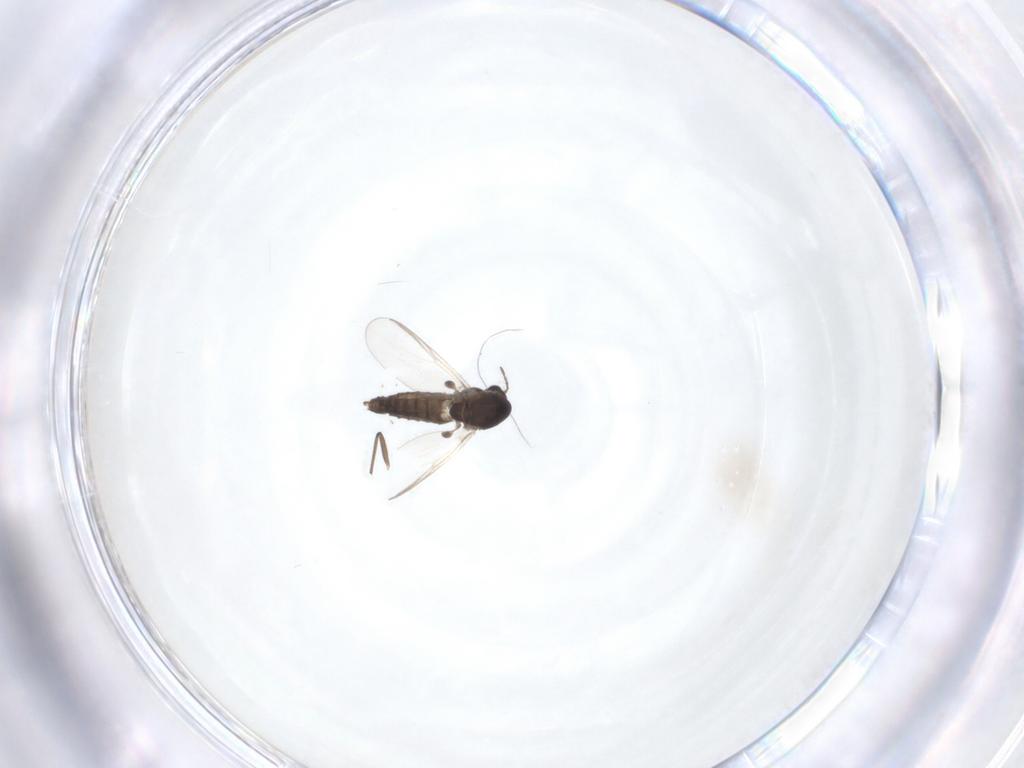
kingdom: Animalia
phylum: Arthropoda
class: Insecta
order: Diptera
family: Chironomidae
